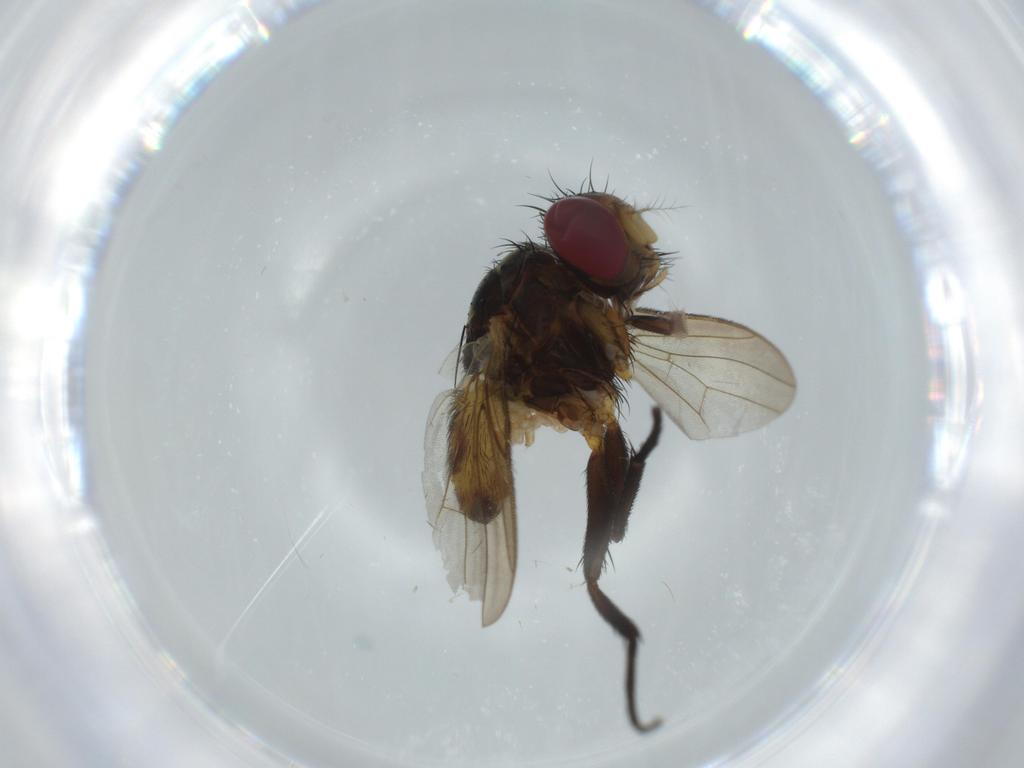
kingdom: Animalia
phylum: Arthropoda
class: Insecta
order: Diptera
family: Anthomyiidae
